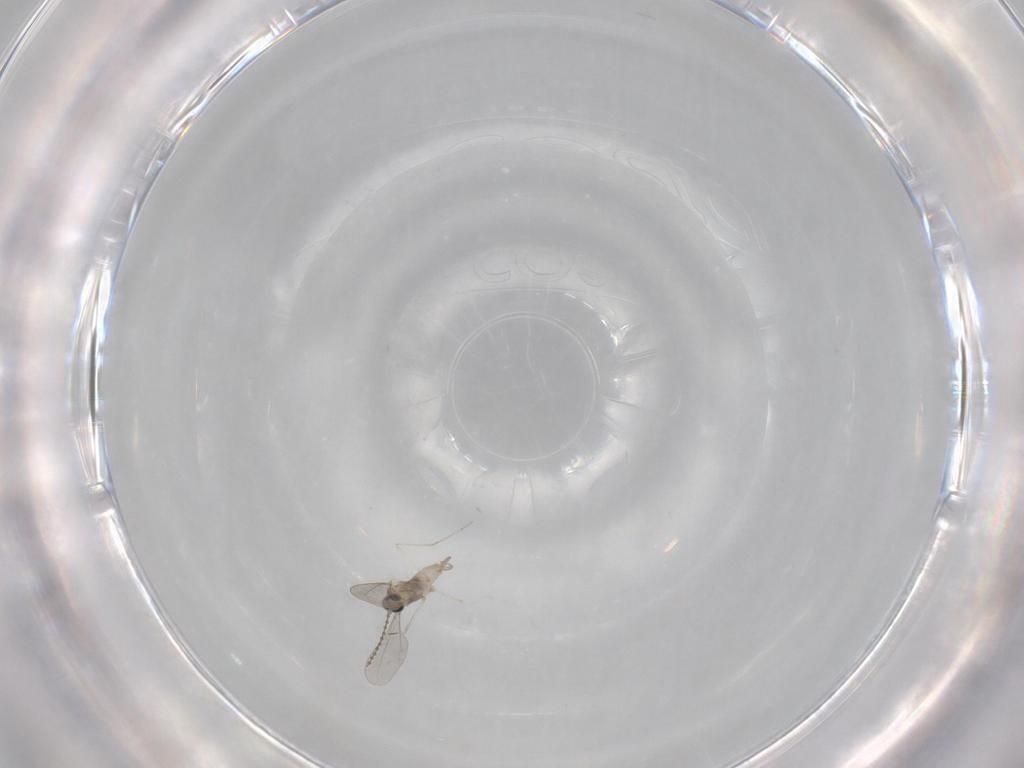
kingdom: Animalia
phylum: Arthropoda
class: Insecta
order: Diptera
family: Cecidomyiidae
